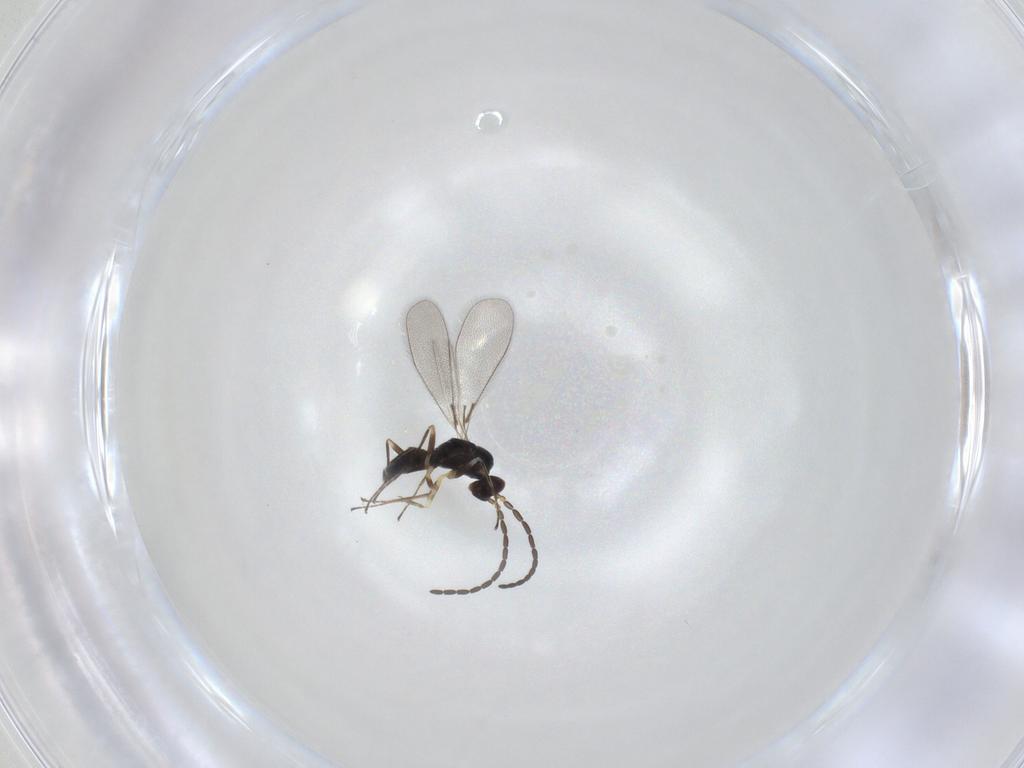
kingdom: Animalia
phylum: Arthropoda
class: Insecta
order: Hymenoptera
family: Mymaridae
